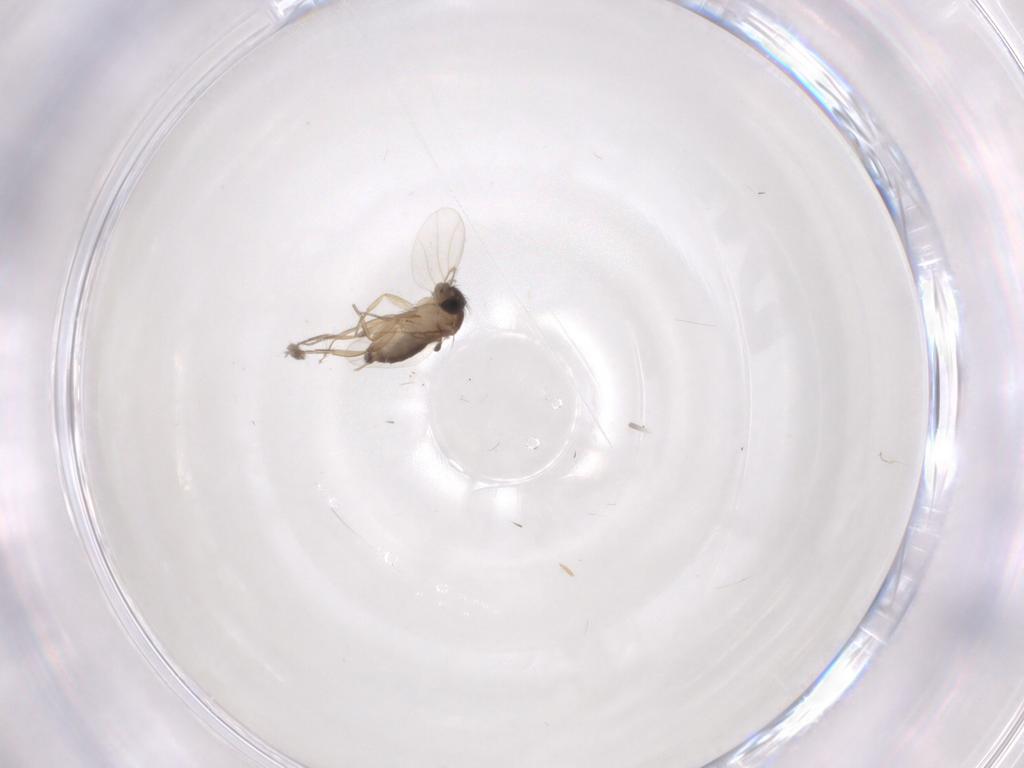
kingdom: Animalia
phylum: Arthropoda
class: Insecta
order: Diptera
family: Phoridae
